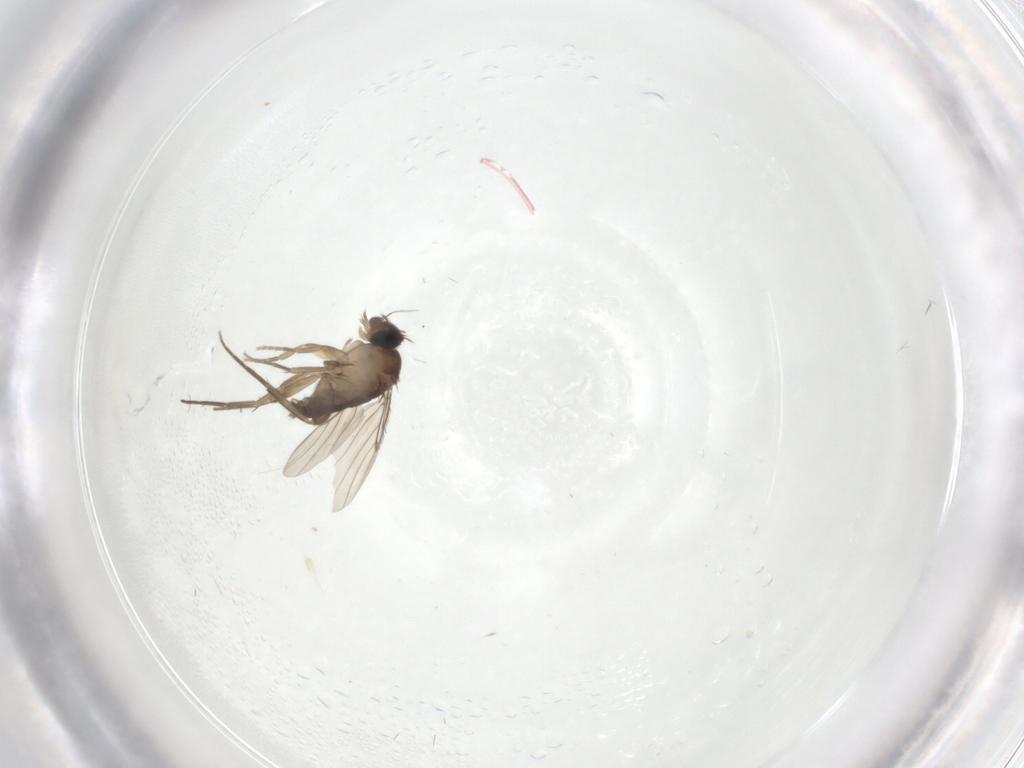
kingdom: Animalia
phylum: Arthropoda
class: Insecta
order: Diptera
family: Phoridae
